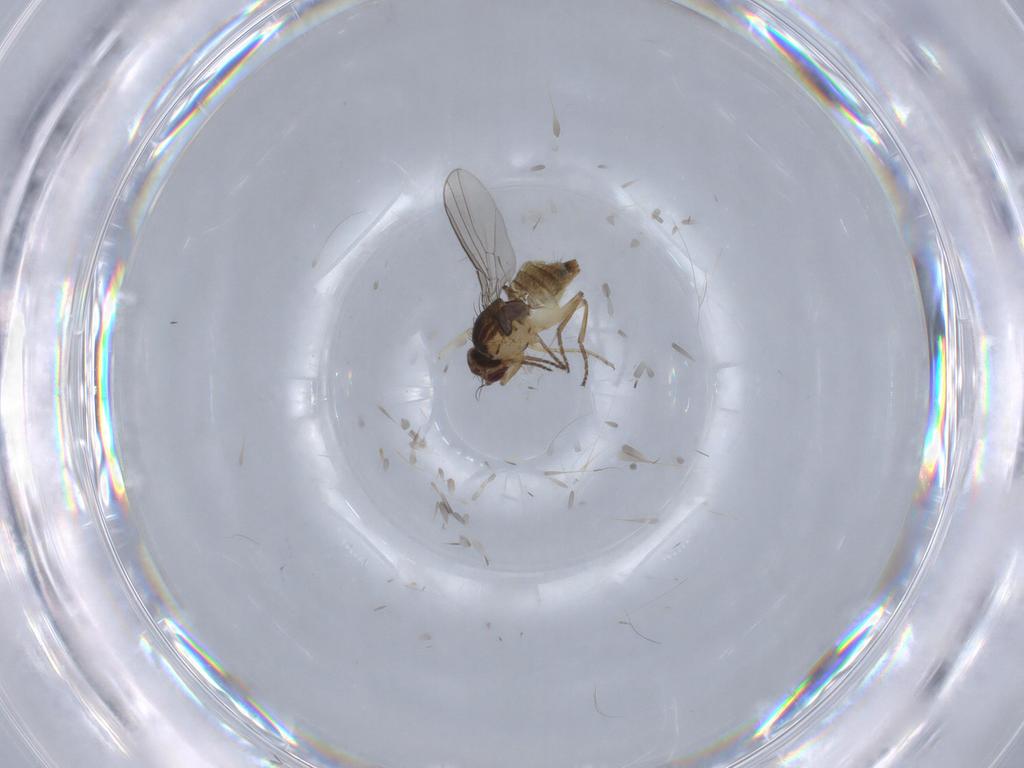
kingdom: Animalia
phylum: Arthropoda
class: Insecta
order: Diptera
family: Agromyzidae
